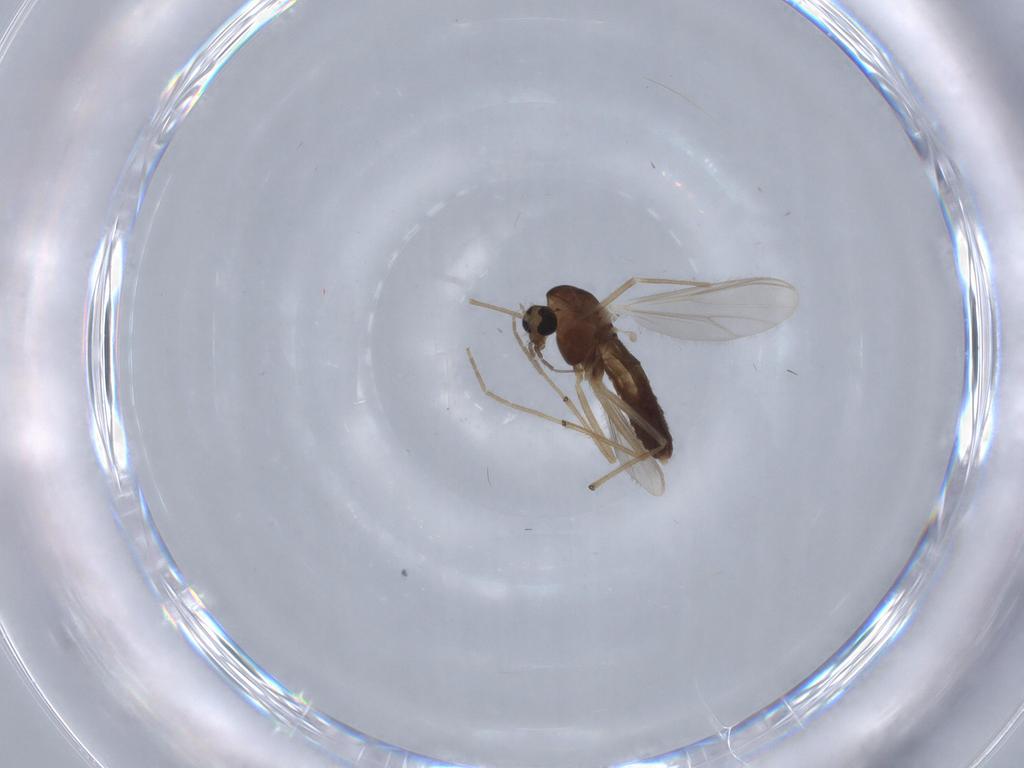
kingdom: Animalia
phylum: Arthropoda
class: Insecta
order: Diptera
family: Chironomidae
